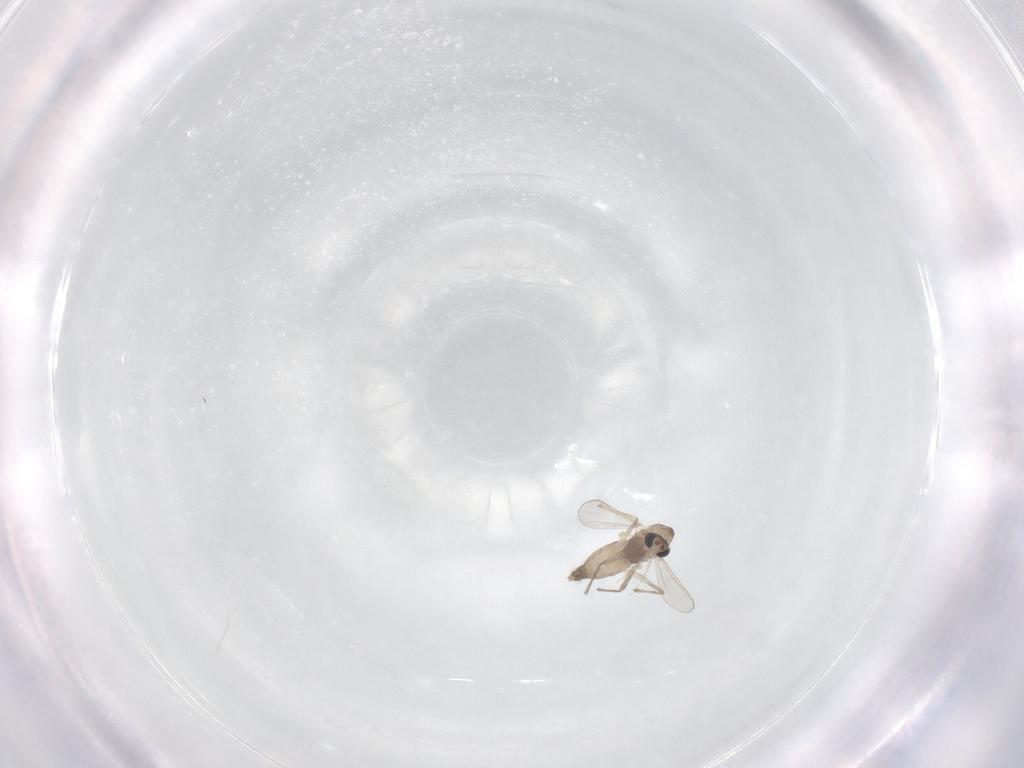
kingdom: Animalia
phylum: Arthropoda
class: Insecta
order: Diptera
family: Chironomidae
